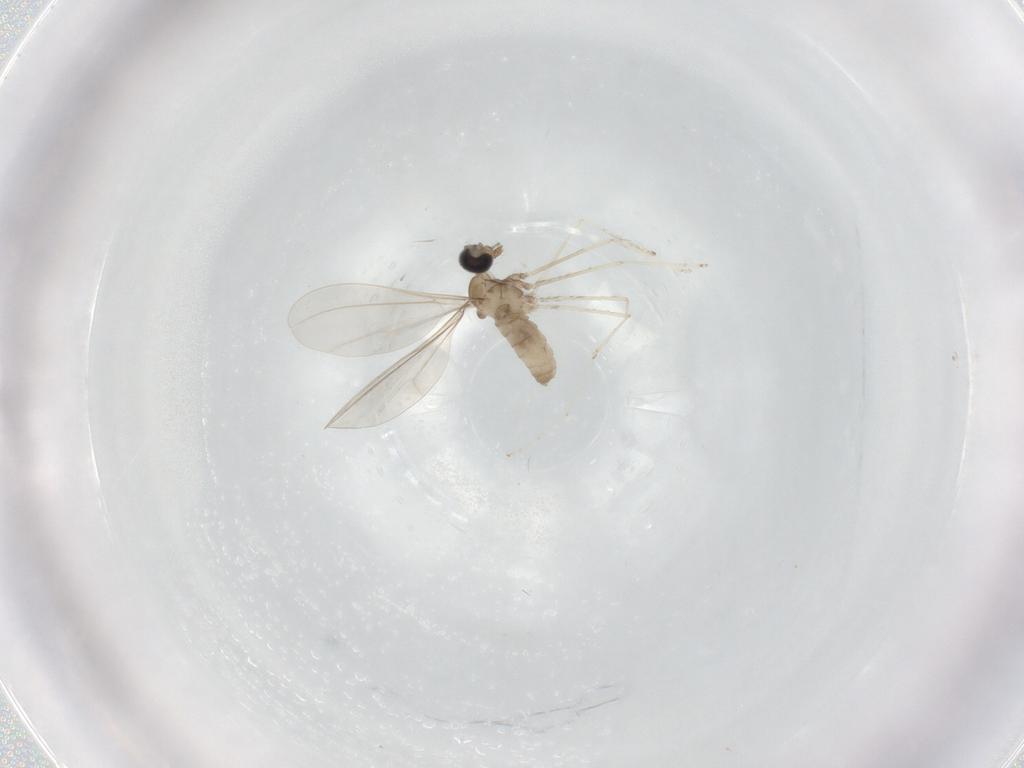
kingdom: Animalia
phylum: Arthropoda
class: Insecta
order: Diptera
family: Cecidomyiidae
